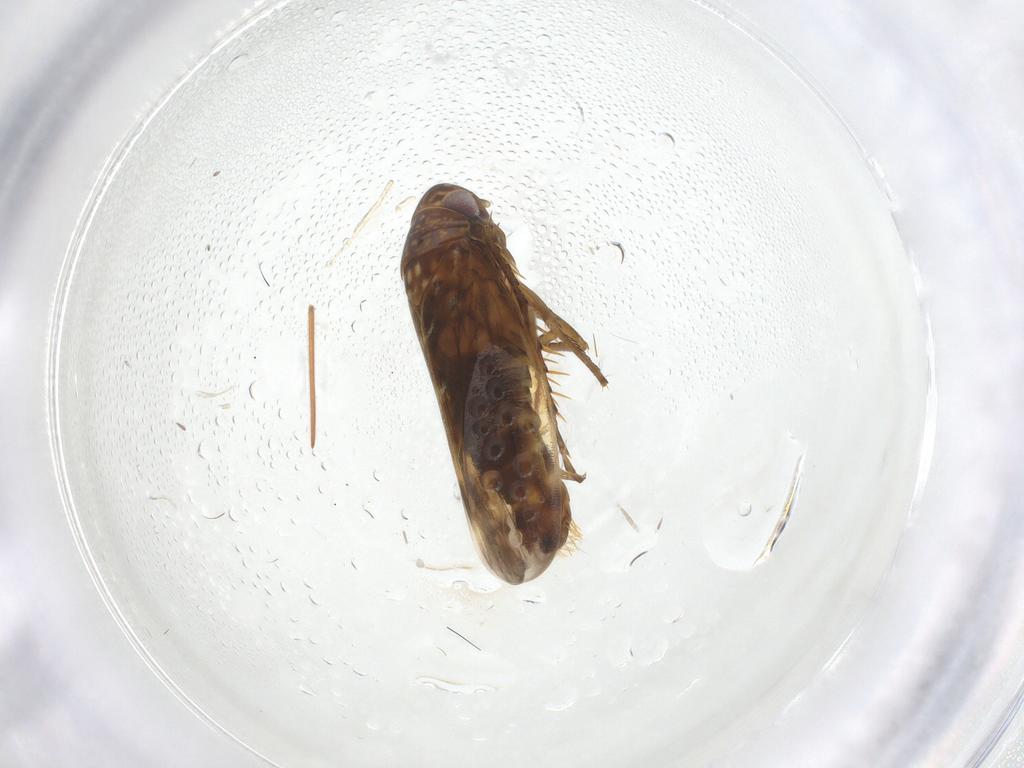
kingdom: Animalia
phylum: Arthropoda
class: Insecta
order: Hemiptera
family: Cicadellidae
